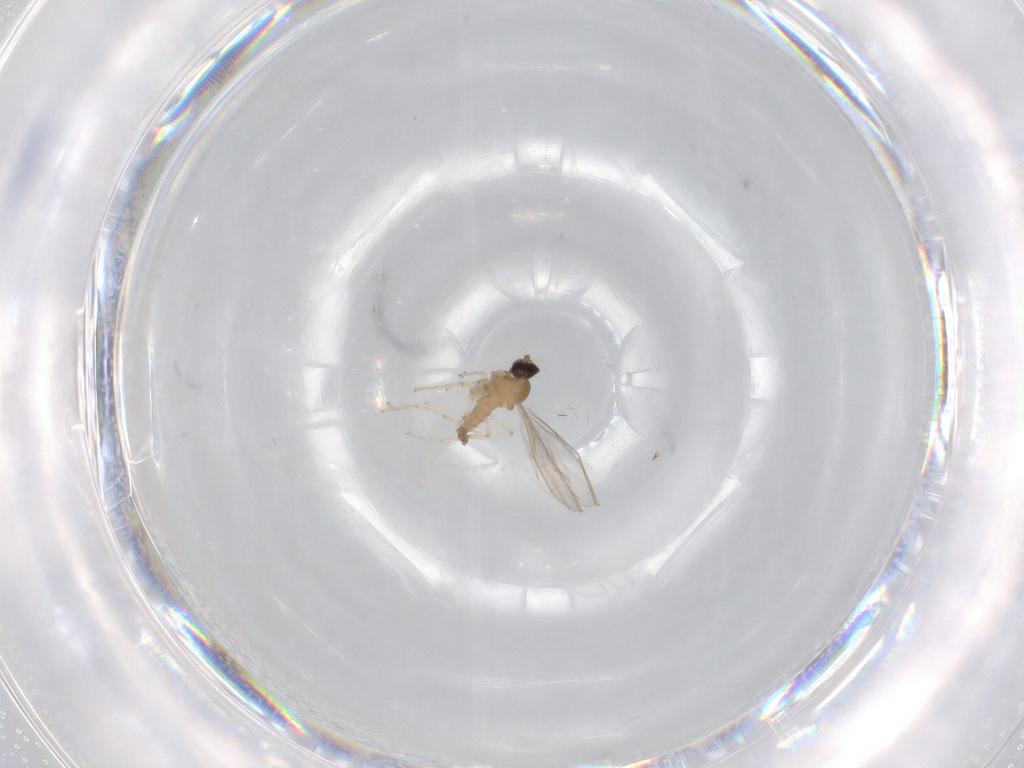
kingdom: Animalia
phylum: Arthropoda
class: Insecta
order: Diptera
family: Cecidomyiidae
